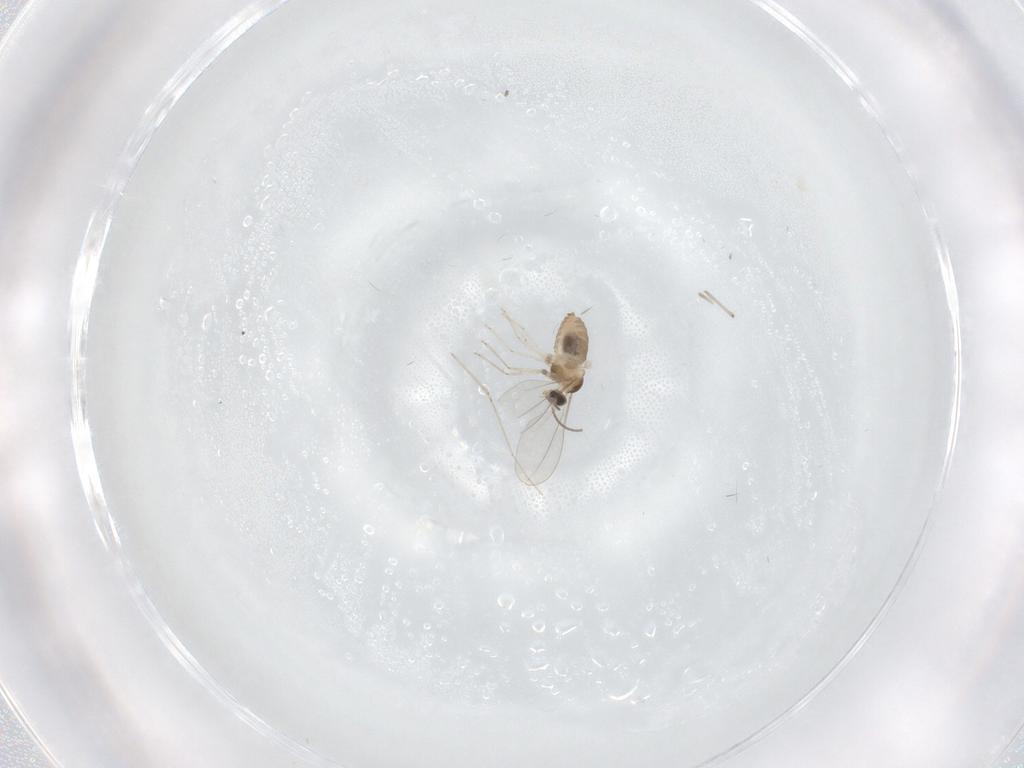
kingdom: Animalia
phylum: Arthropoda
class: Insecta
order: Diptera
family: Chironomidae
